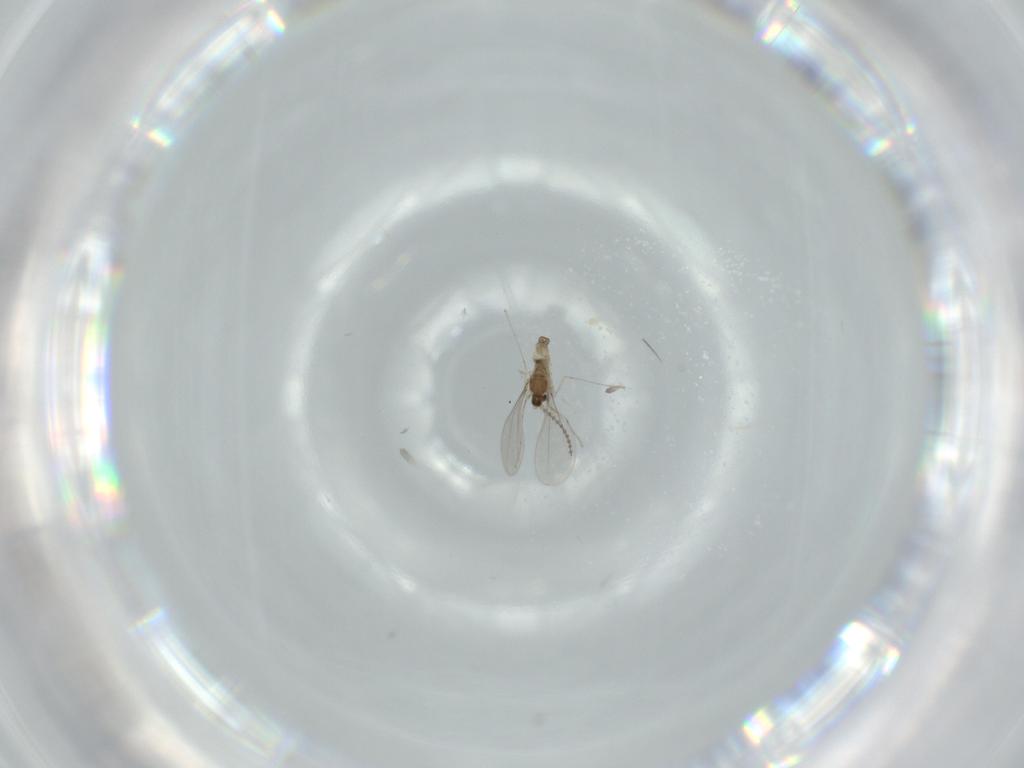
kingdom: Animalia
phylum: Arthropoda
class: Insecta
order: Diptera
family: Cecidomyiidae
